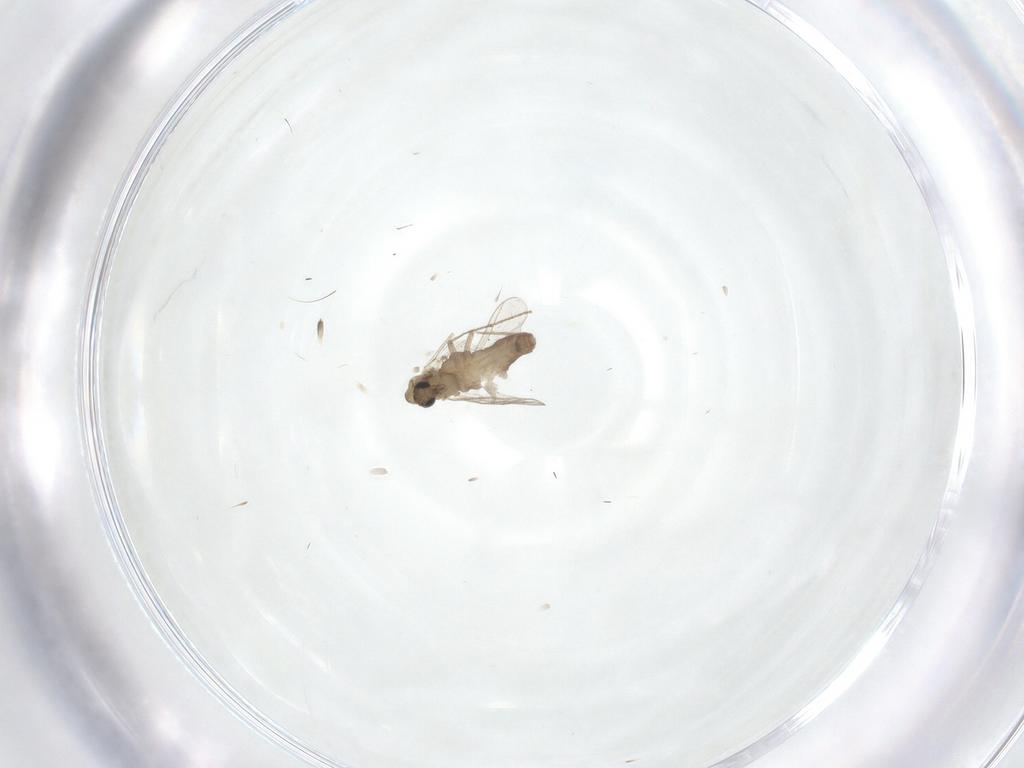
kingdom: Animalia
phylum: Arthropoda
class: Insecta
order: Diptera
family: Chironomidae
